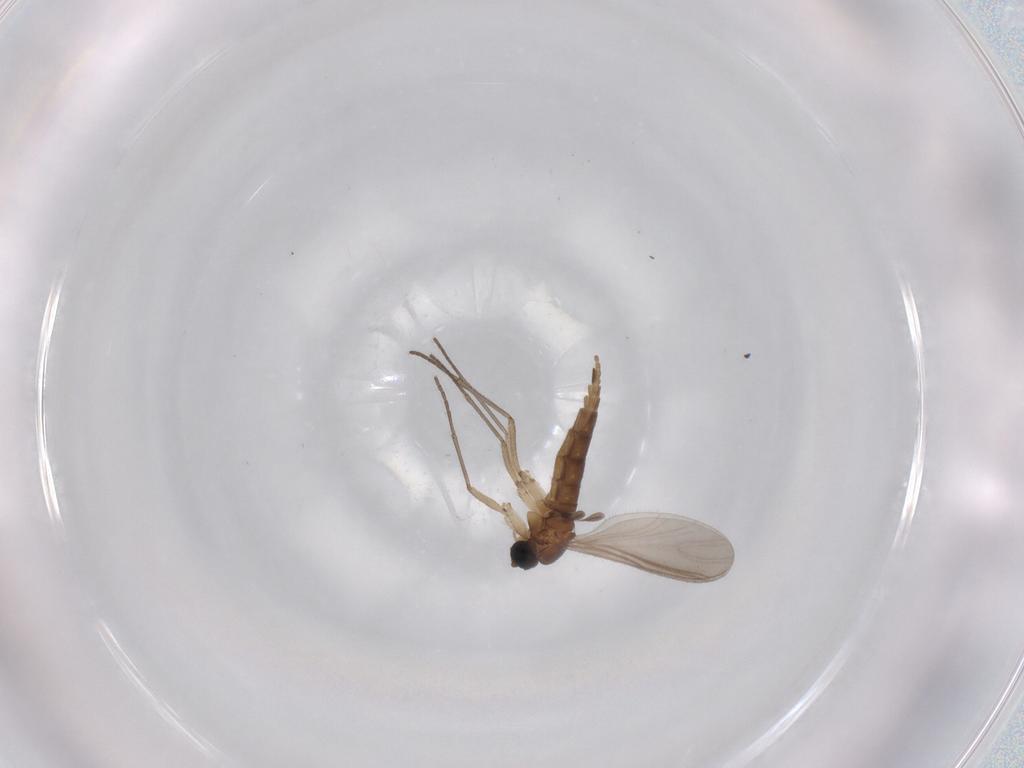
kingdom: Animalia
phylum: Arthropoda
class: Insecta
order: Diptera
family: Sciaridae
